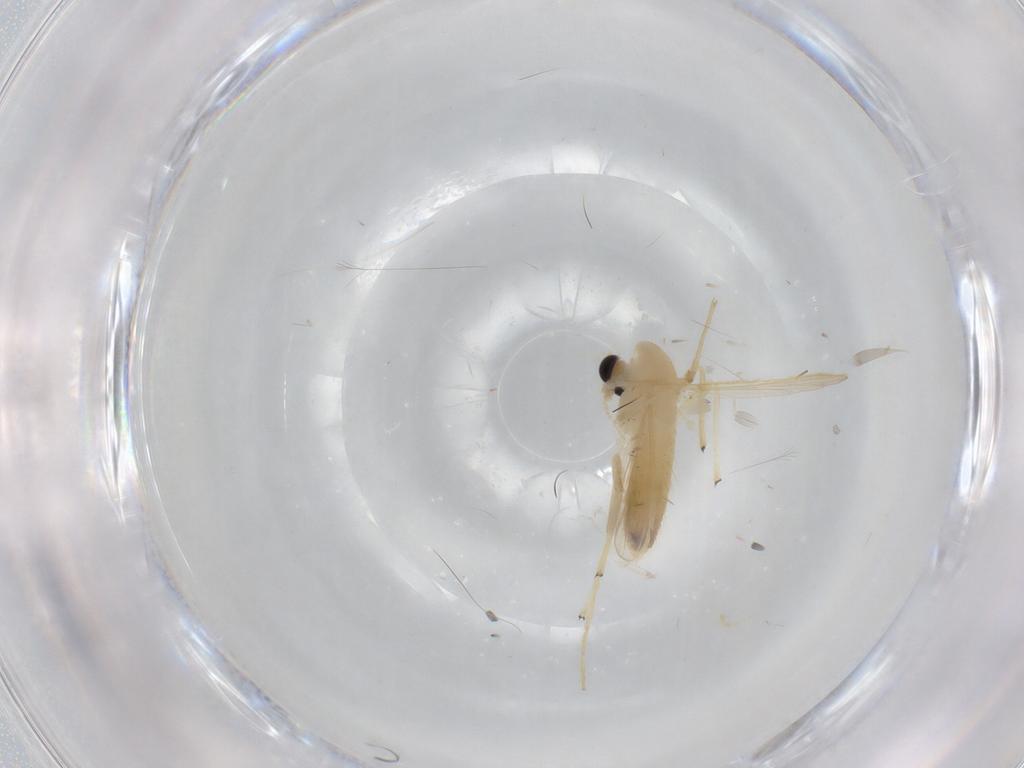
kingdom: Animalia
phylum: Arthropoda
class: Insecta
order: Diptera
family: Chironomidae
